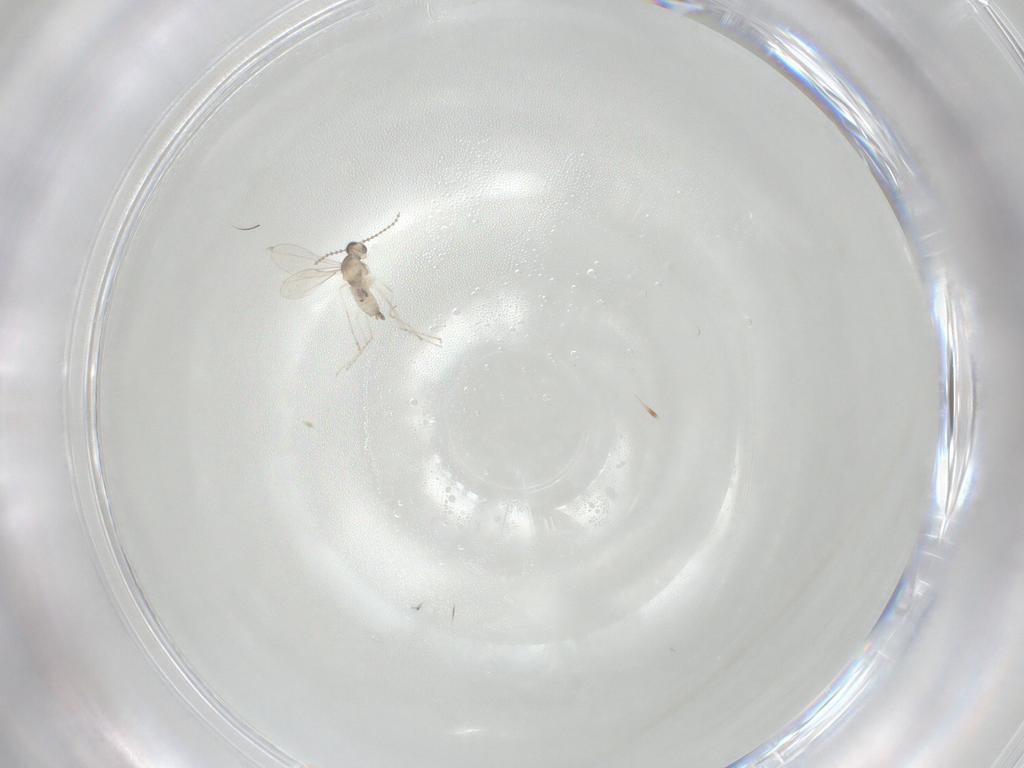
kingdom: Animalia
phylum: Arthropoda
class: Insecta
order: Diptera
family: Cecidomyiidae
